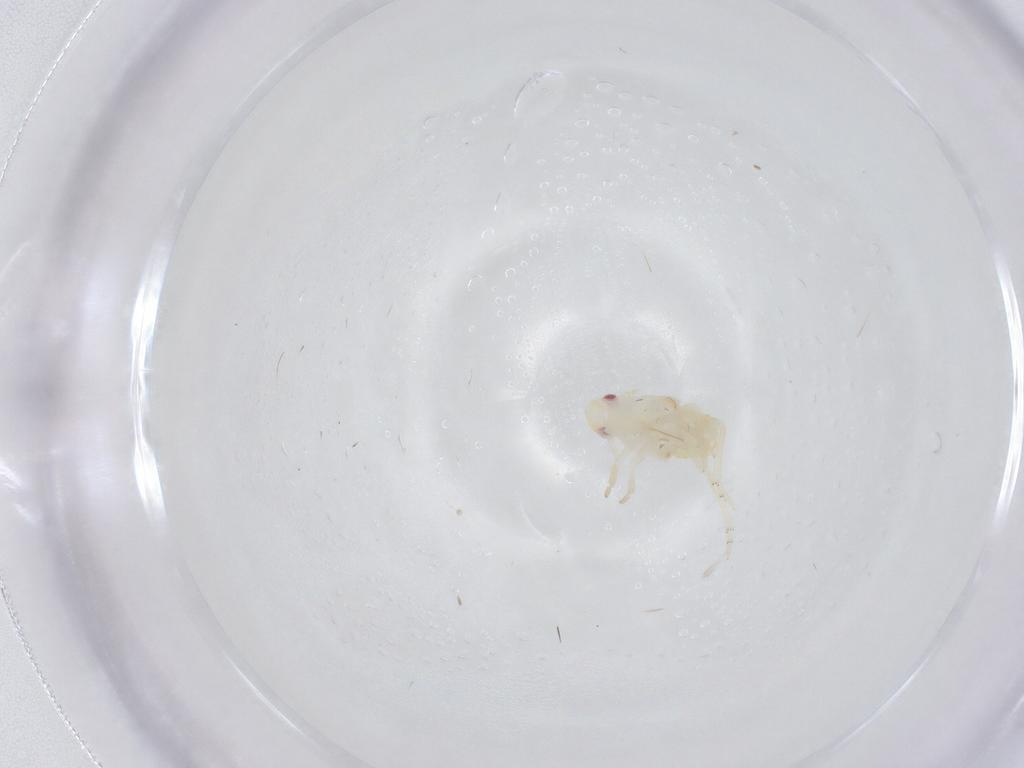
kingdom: Animalia
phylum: Arthropoda
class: Insecta
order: Hemiptera
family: Flatidae
